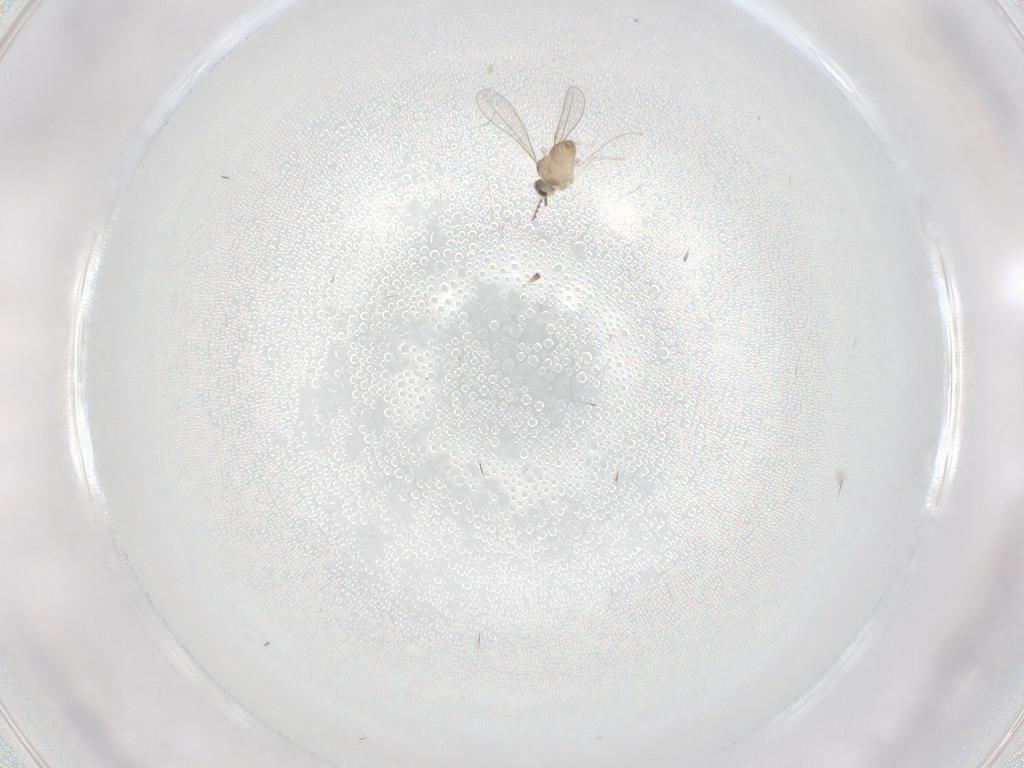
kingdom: Animalia
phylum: Arthropoda
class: Insecta
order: Diptera
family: Cecidomyiidae
